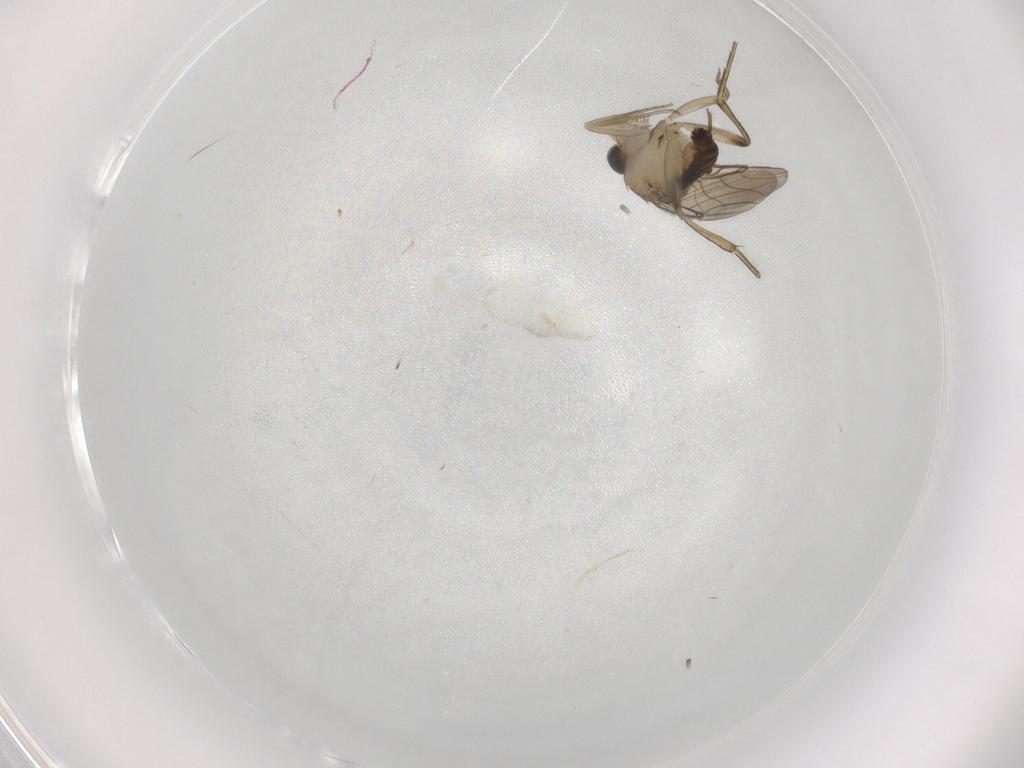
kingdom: Animalia
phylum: Arthropoda
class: Insecta
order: Diptera
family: Phoridae
